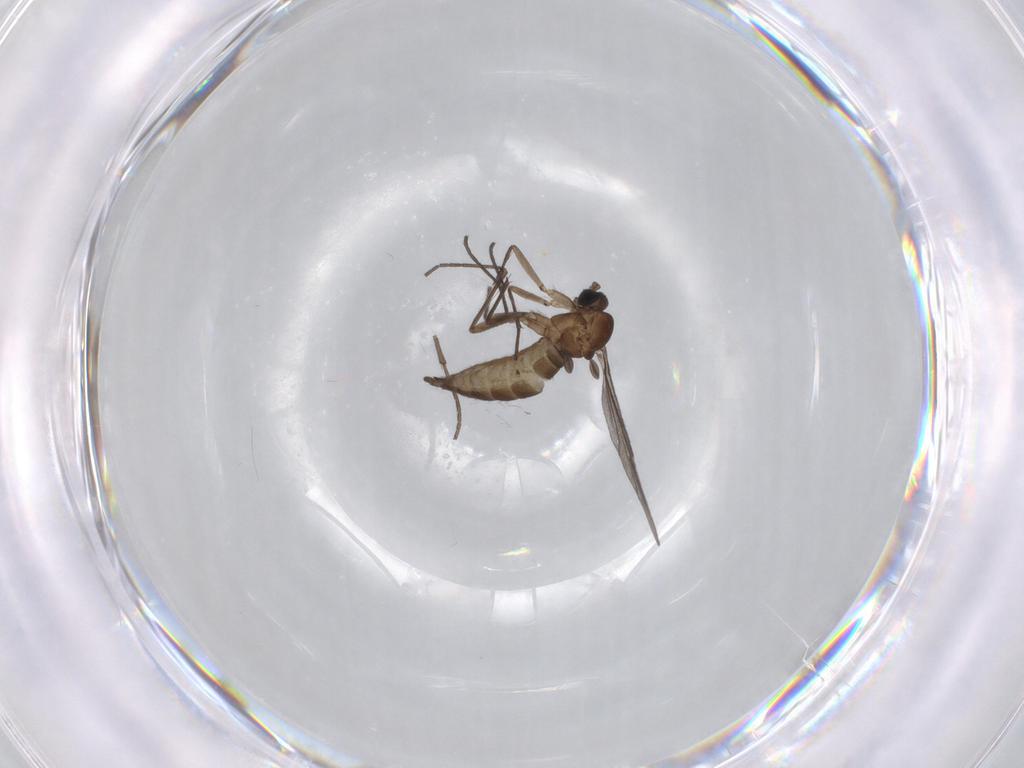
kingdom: Animalia
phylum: Arthropoda
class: Insecta
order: Diptera
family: Sciaridae
